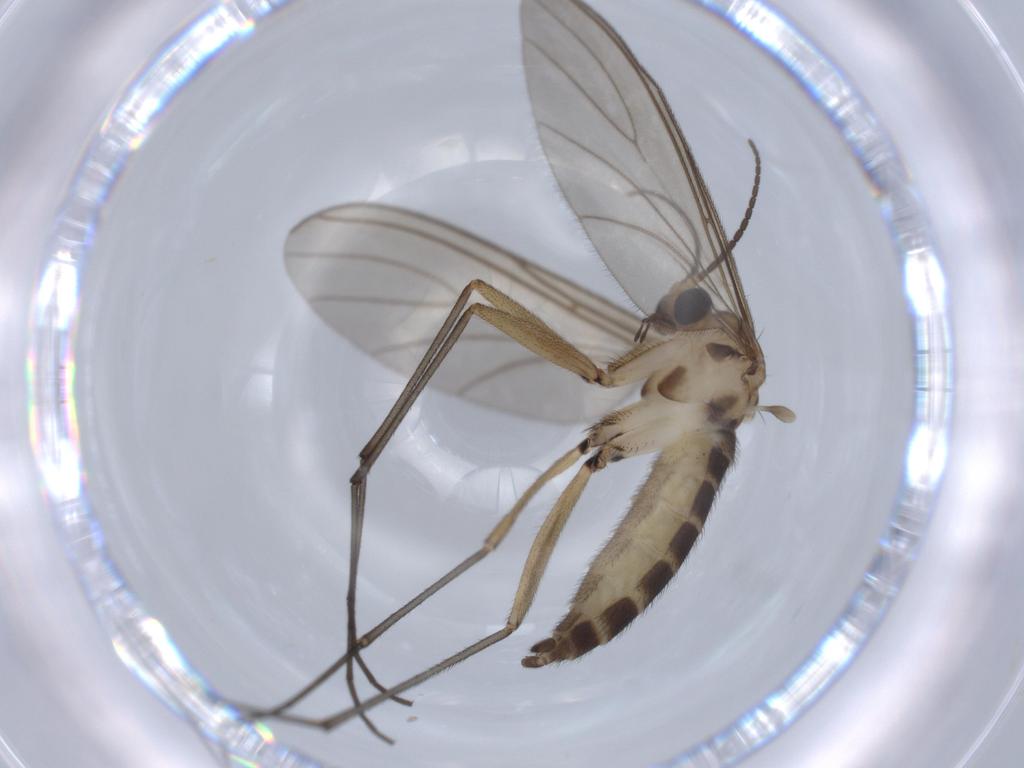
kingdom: Animalia
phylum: Arthropoda
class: Insecta
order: Diptera
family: Sciaridae
